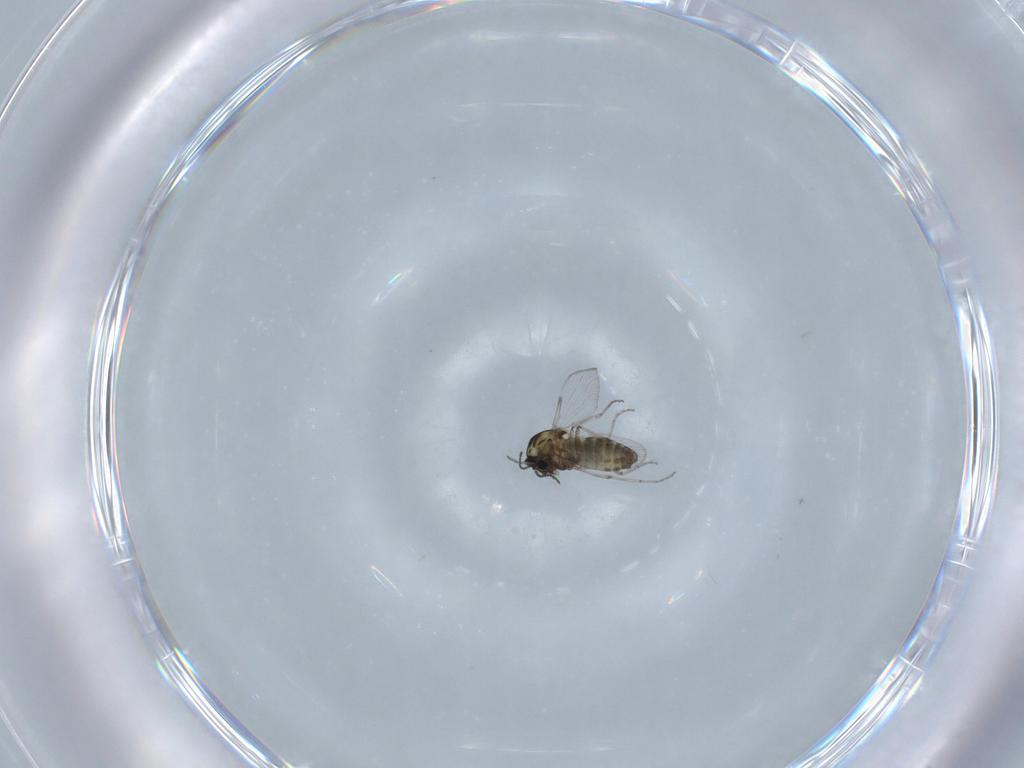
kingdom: Animalia
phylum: Arthropoda
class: Insecta
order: Diptera
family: Ceratopogonidae
